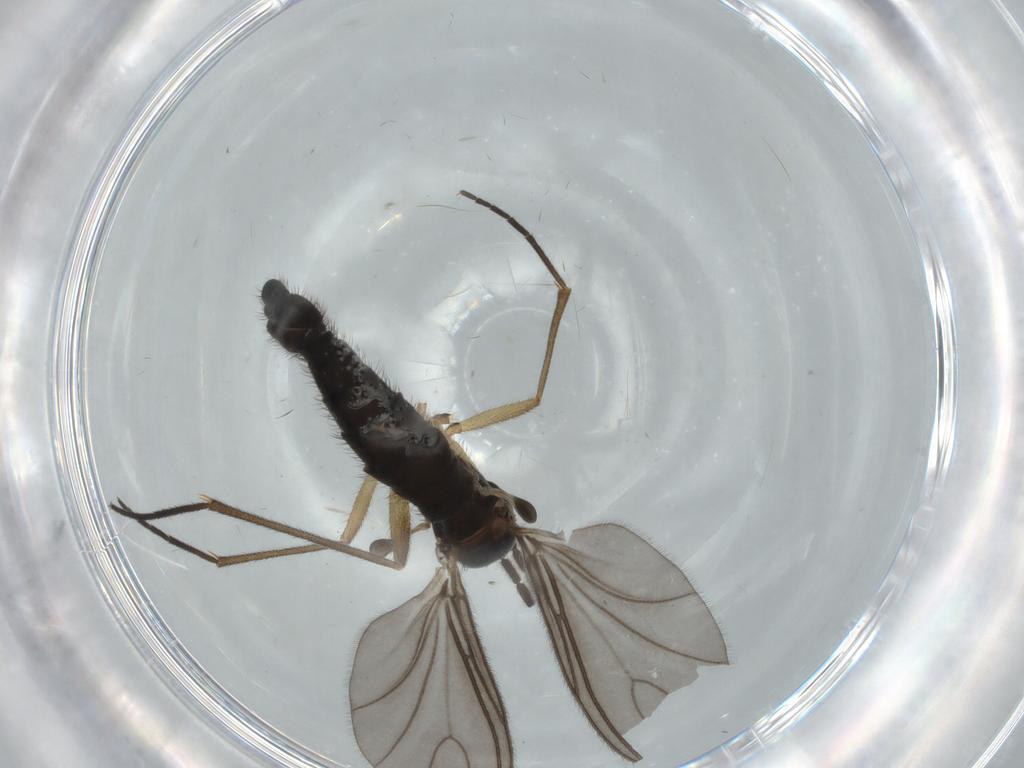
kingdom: Animalia
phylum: Arthropoda
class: Insecta
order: Diptera
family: Sciaridae
